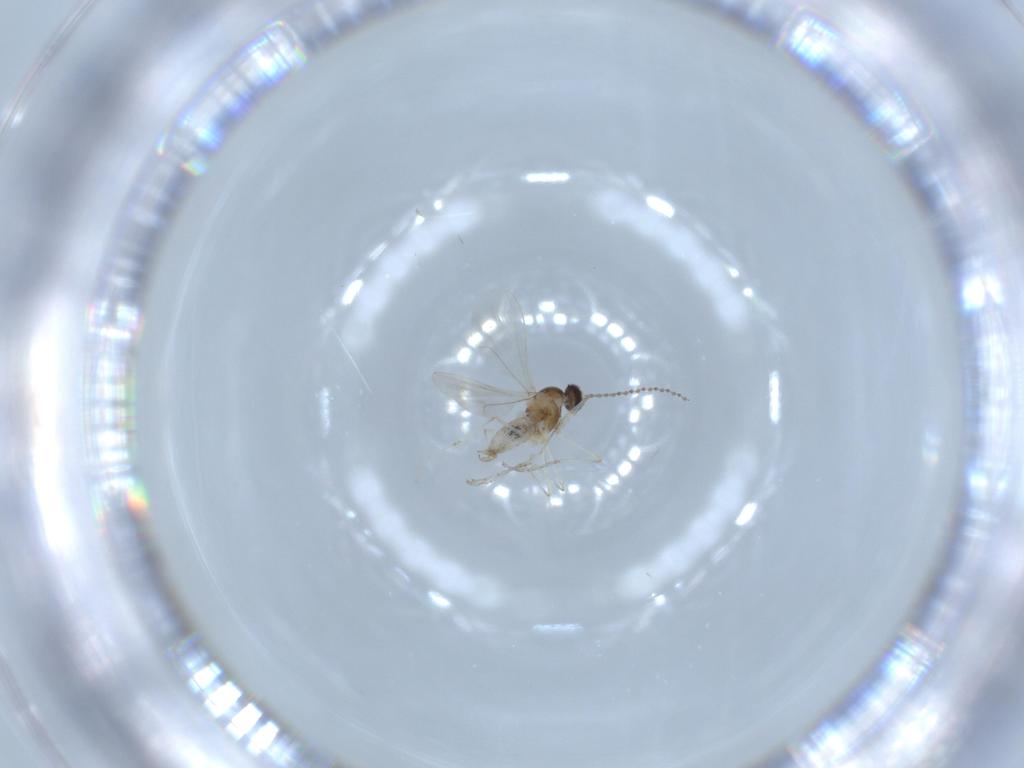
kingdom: Animalia
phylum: Arthropoda
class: Insecta
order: Diptera
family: Cecidomyiidae
